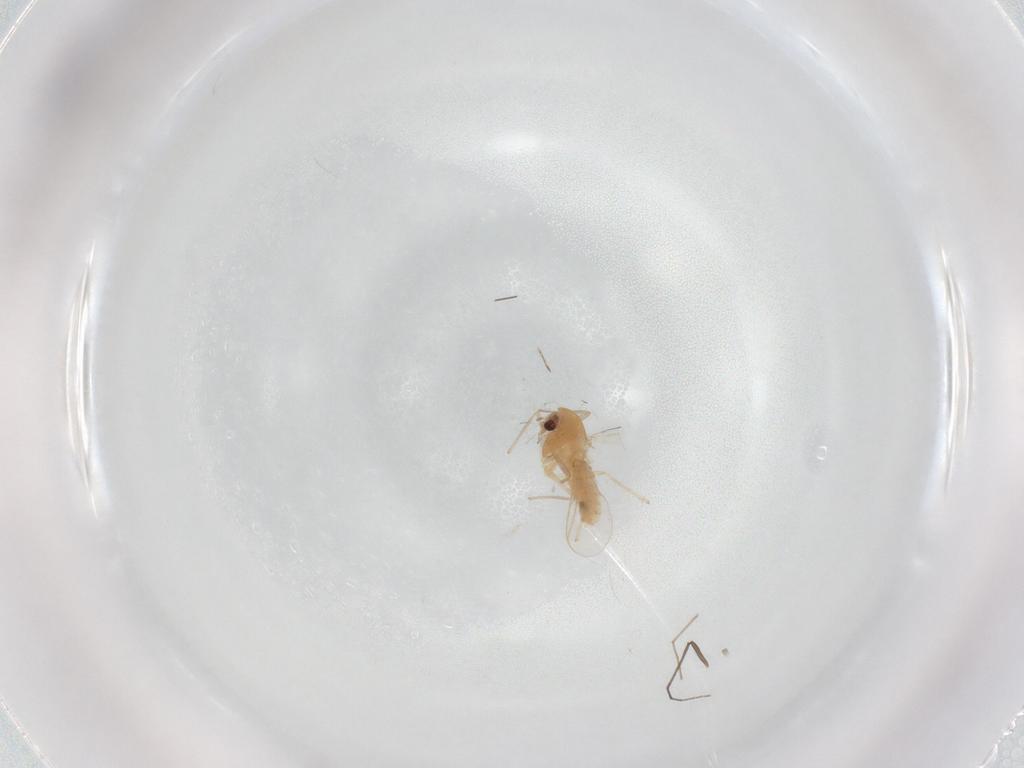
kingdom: Animalia
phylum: Arthropoda
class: Insecta
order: Diptera
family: Chironomidae
